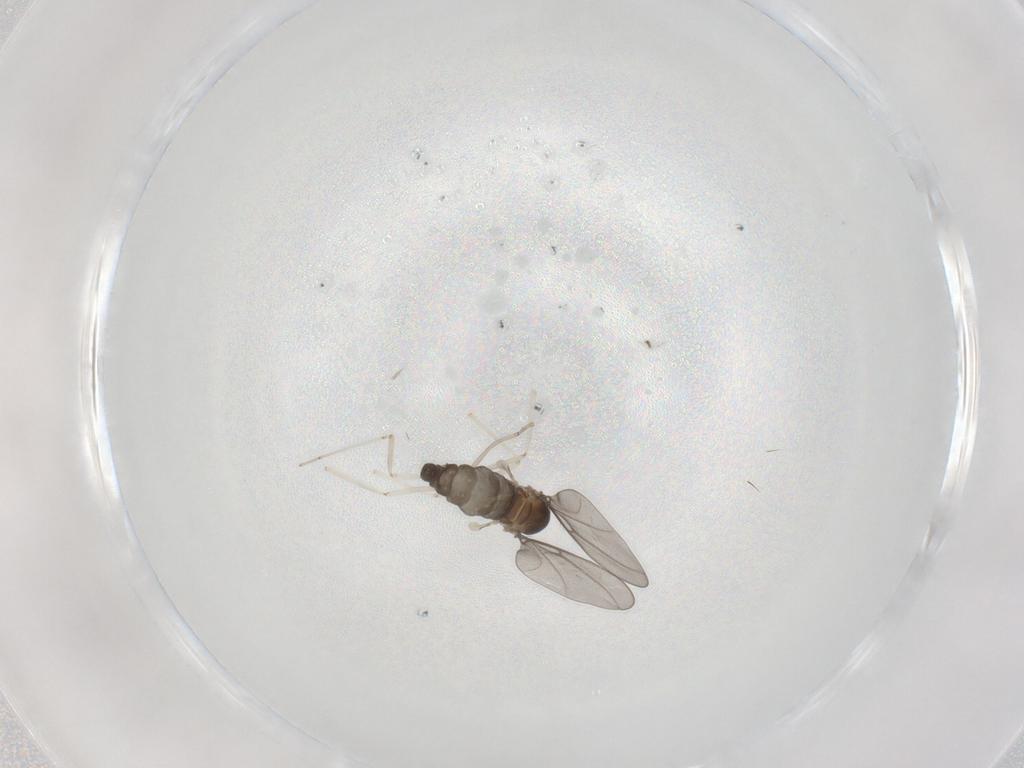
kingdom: Animalia
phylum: Arthropoda
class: Insecta
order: Diptera
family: Cecidomyiidae
